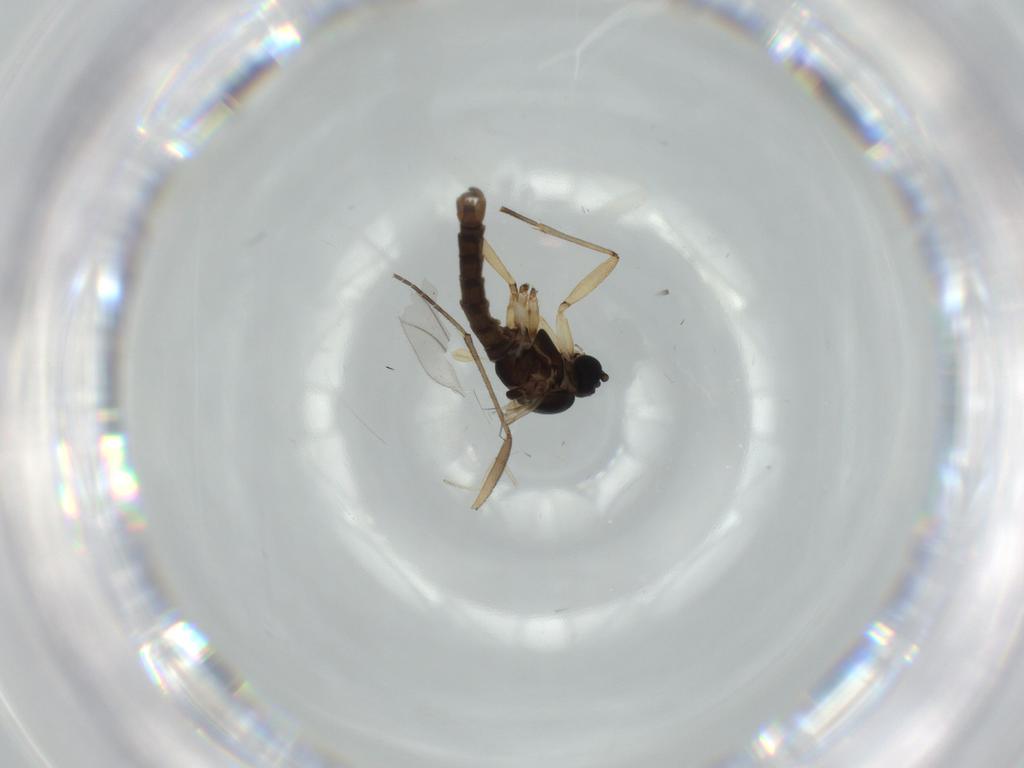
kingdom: Animalia
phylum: Arthropoda
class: Insecta
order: Diptera
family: Sciaridae
